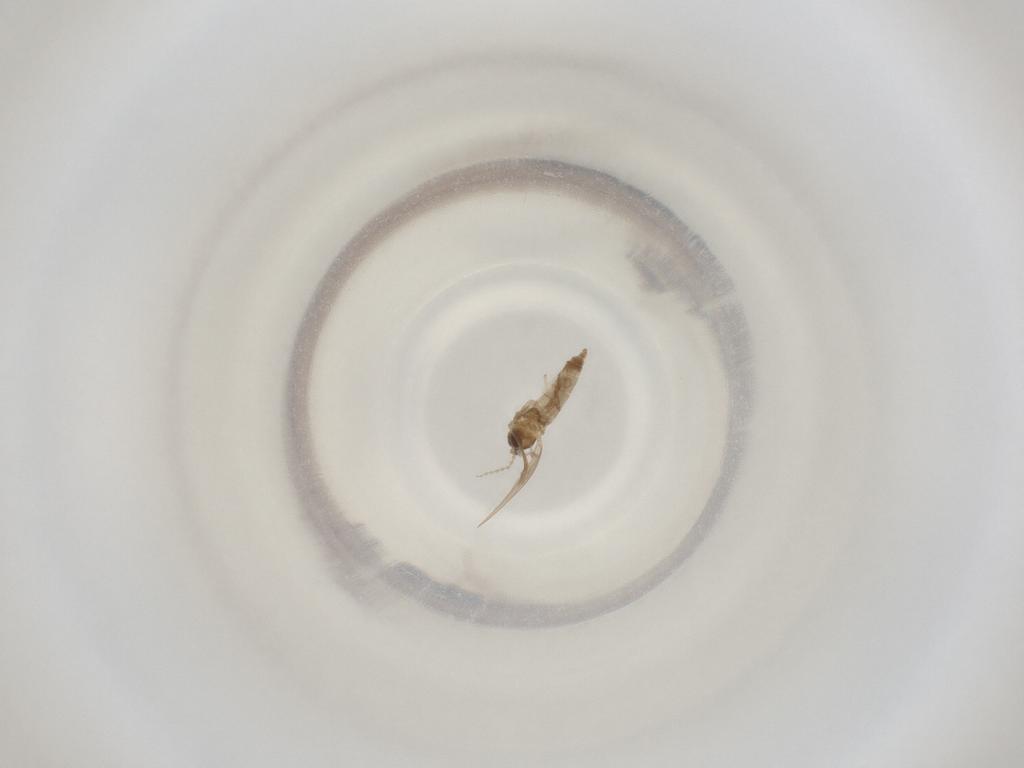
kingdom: Animalia
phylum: Arthropoda
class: Insecta
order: Diptera
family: Cecidomyiidae
